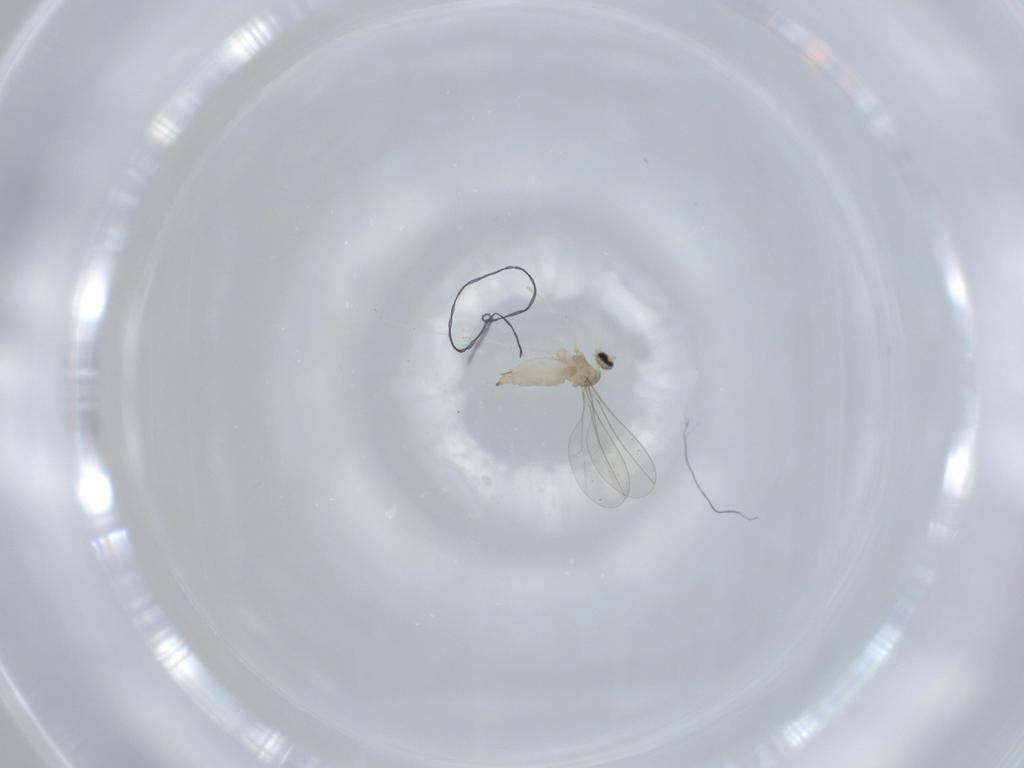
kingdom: Animalia
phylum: Arthropoda
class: Insecta
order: Diptera
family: Cecidomyiidae
